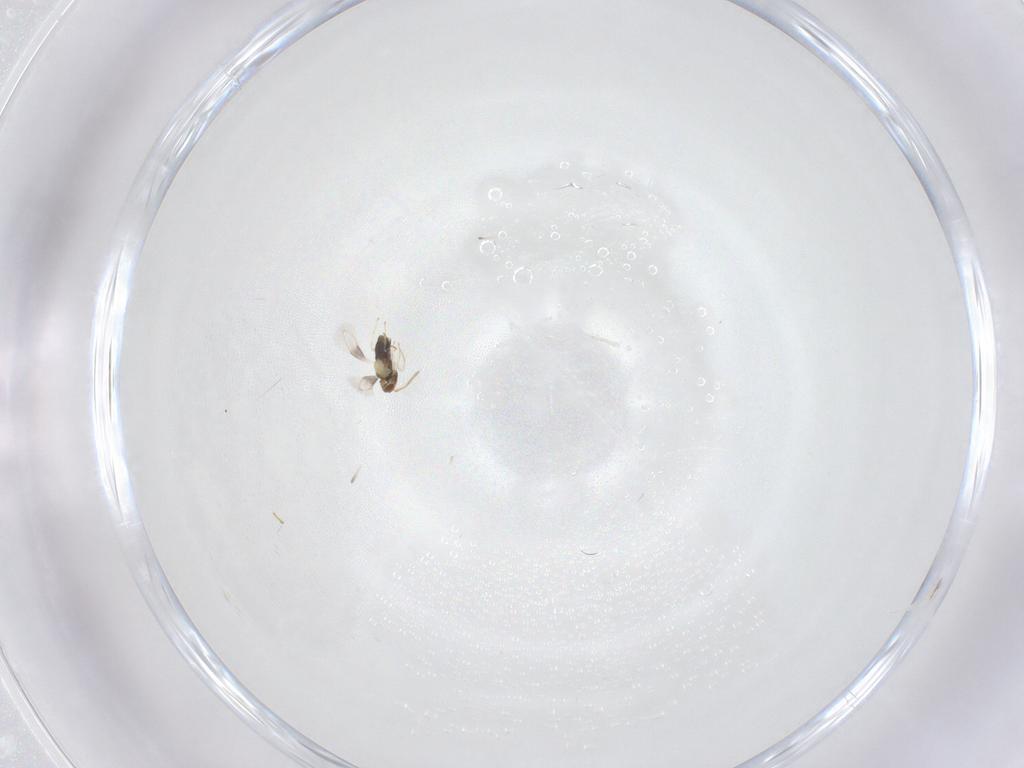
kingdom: Animalia
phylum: Arthropoda
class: Insecta
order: Hymenoptera
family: Aphelinidae
